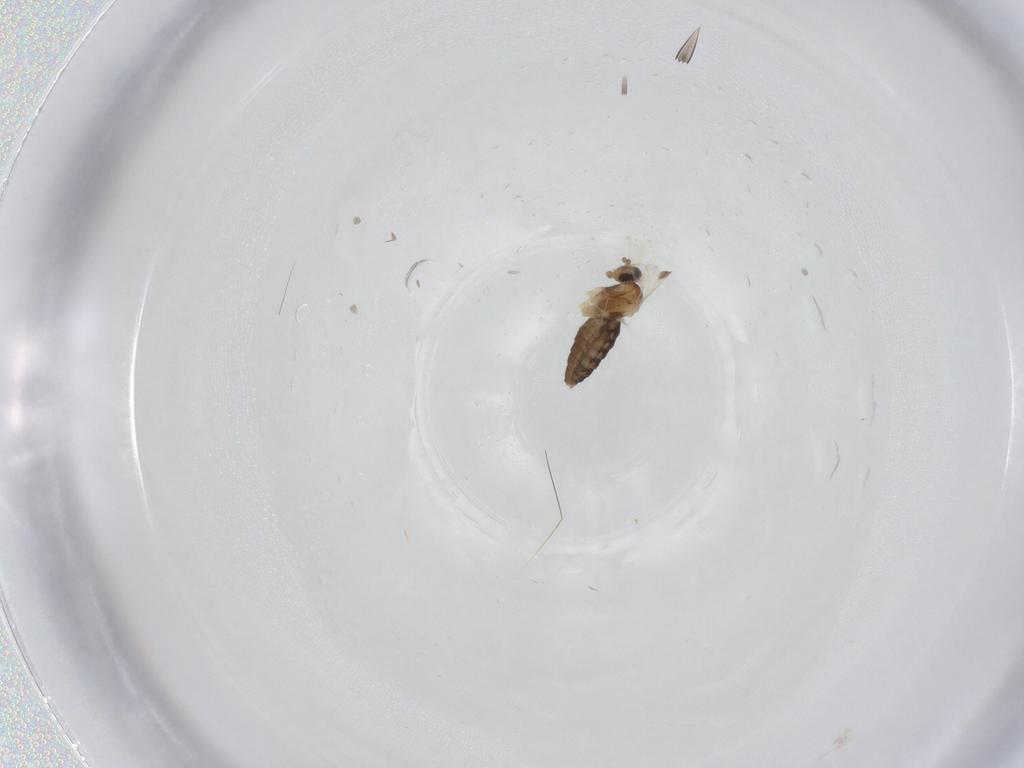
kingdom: Animalia
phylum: Arthropoda
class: Insecta
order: Diptera
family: Cecidomyiidae
